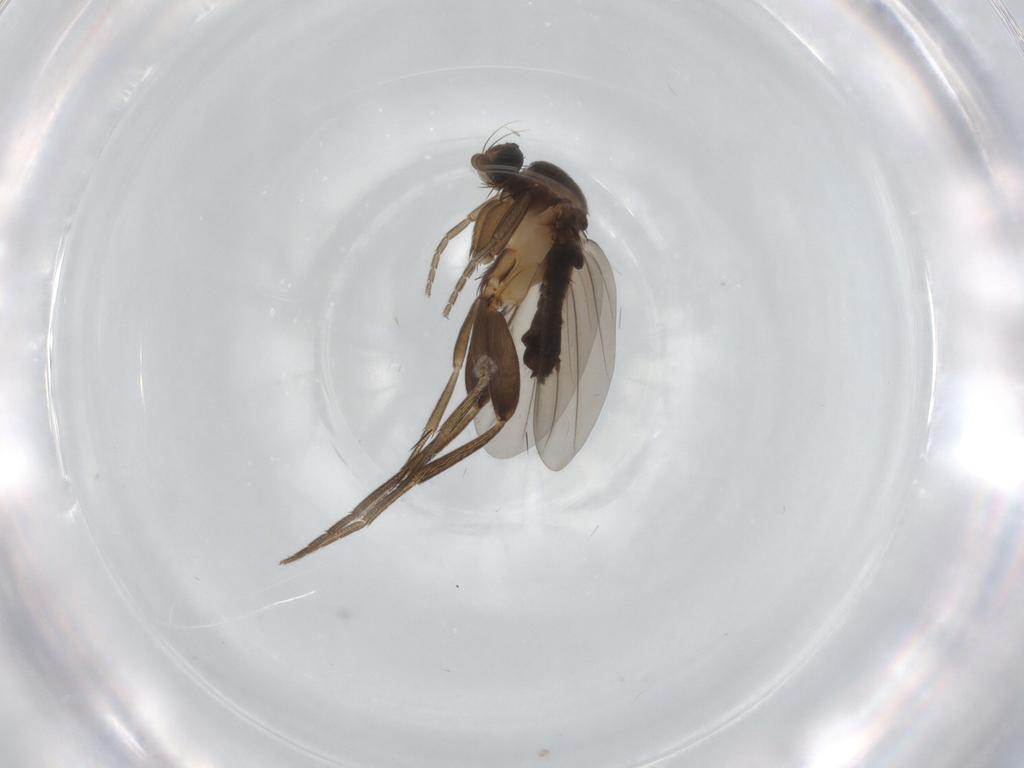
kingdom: Animalia
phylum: Arthropoda
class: Insecta
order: Diptera
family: Phoridae
